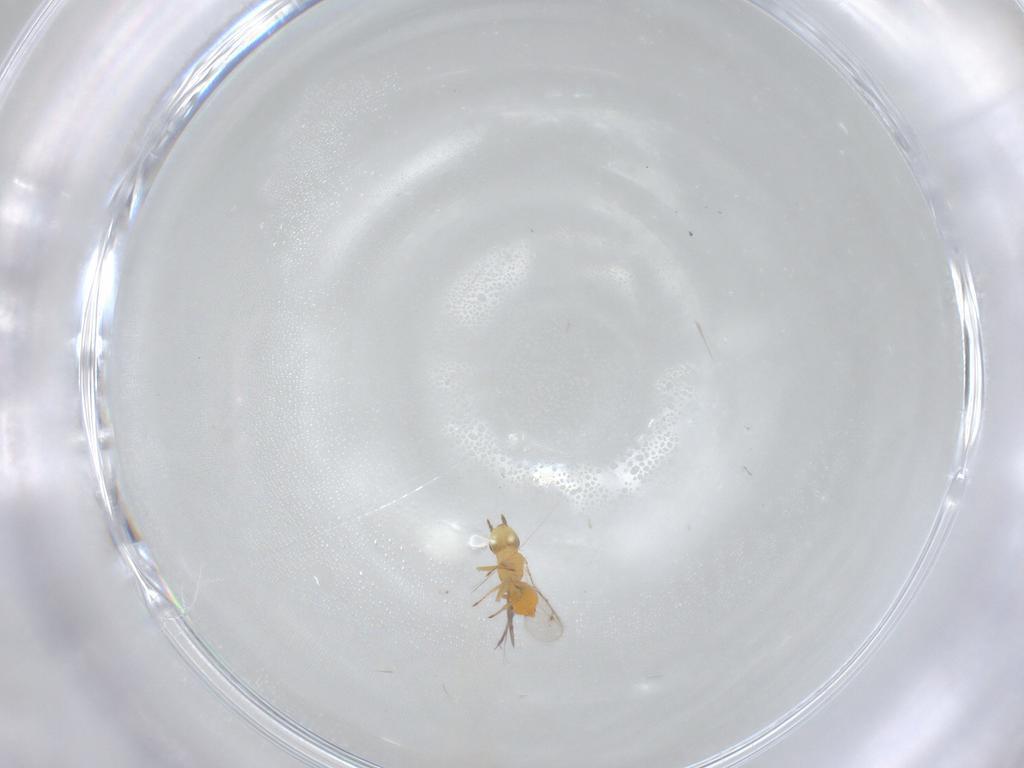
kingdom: Animalia
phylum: Arthropoda
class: Insecta
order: Hymenoptera
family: Eulophidae
